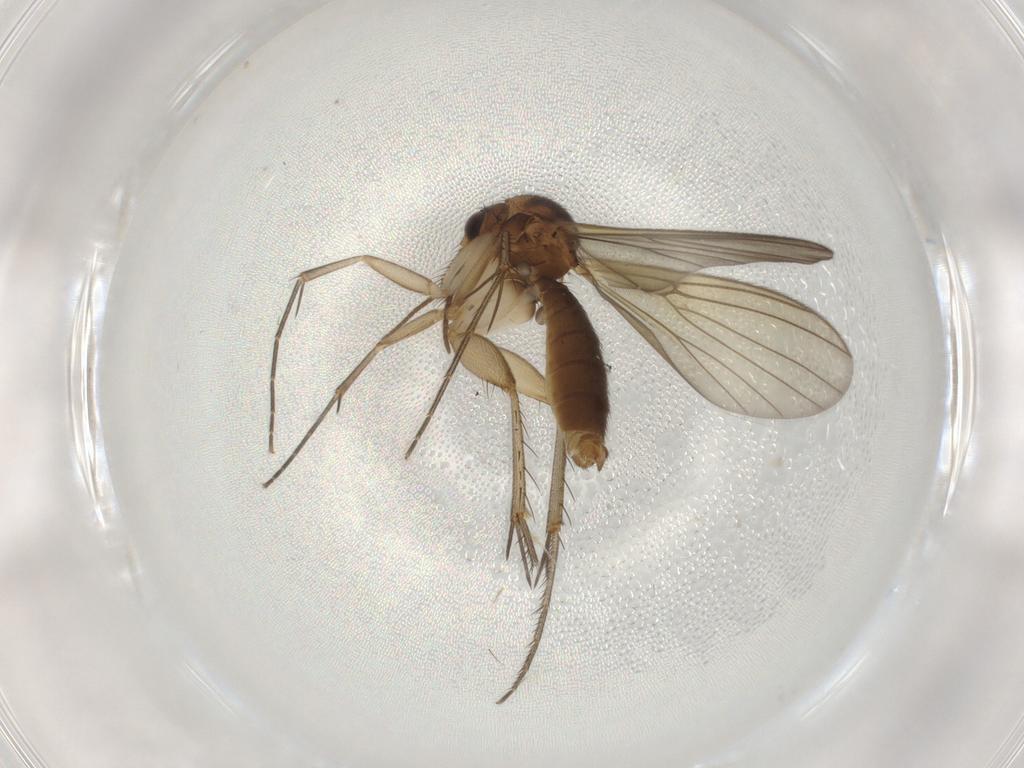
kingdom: Animalia
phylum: Arthropoda
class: Insecta
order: Diptera
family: Mycetophilidae
